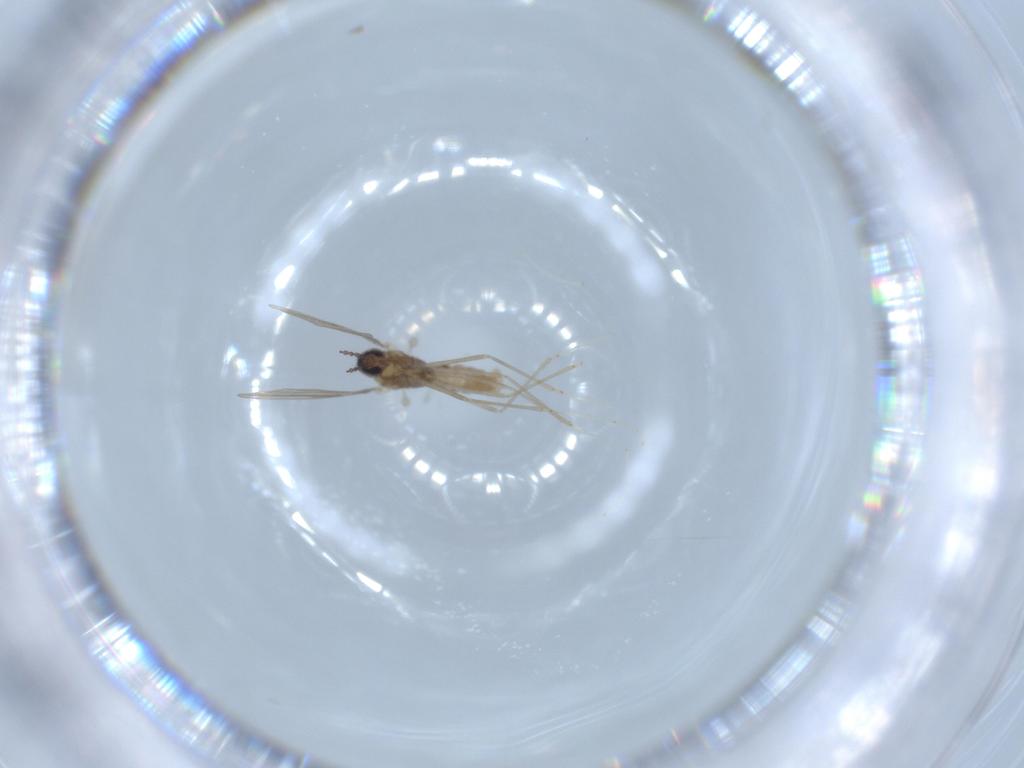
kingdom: Animalia
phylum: Arthropoda
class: Insecta
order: Diptera
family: Cecidomyiidae
